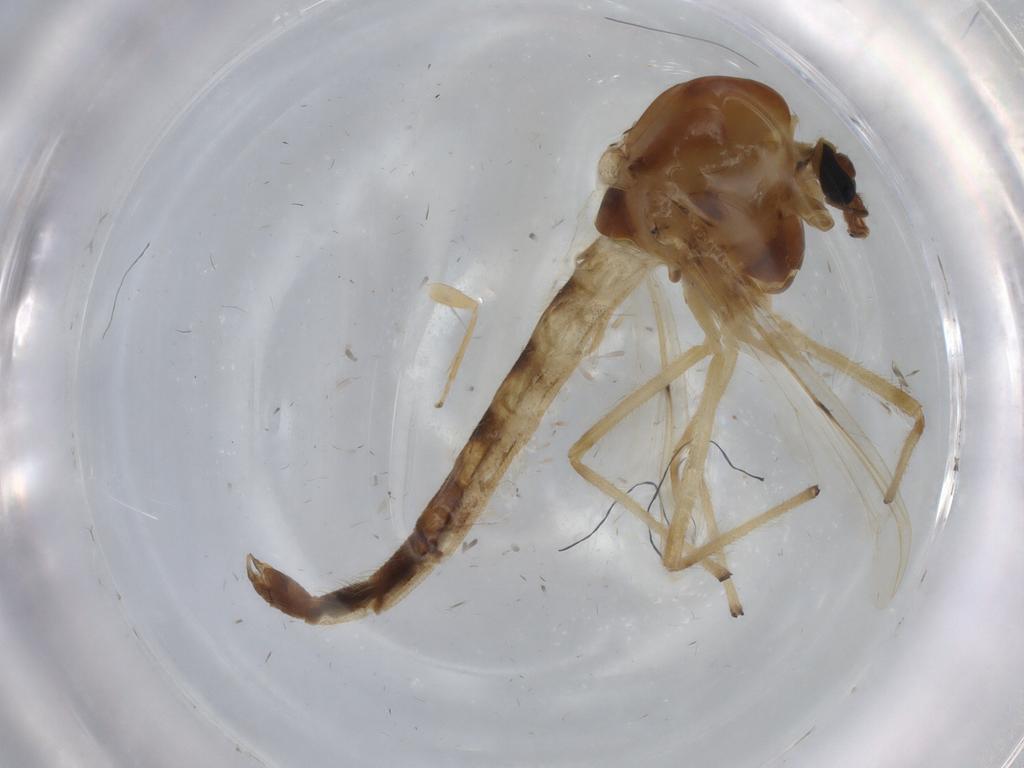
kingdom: Animalia
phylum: Arthropoda
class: Insecta
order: Diptera
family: Chironomidae
